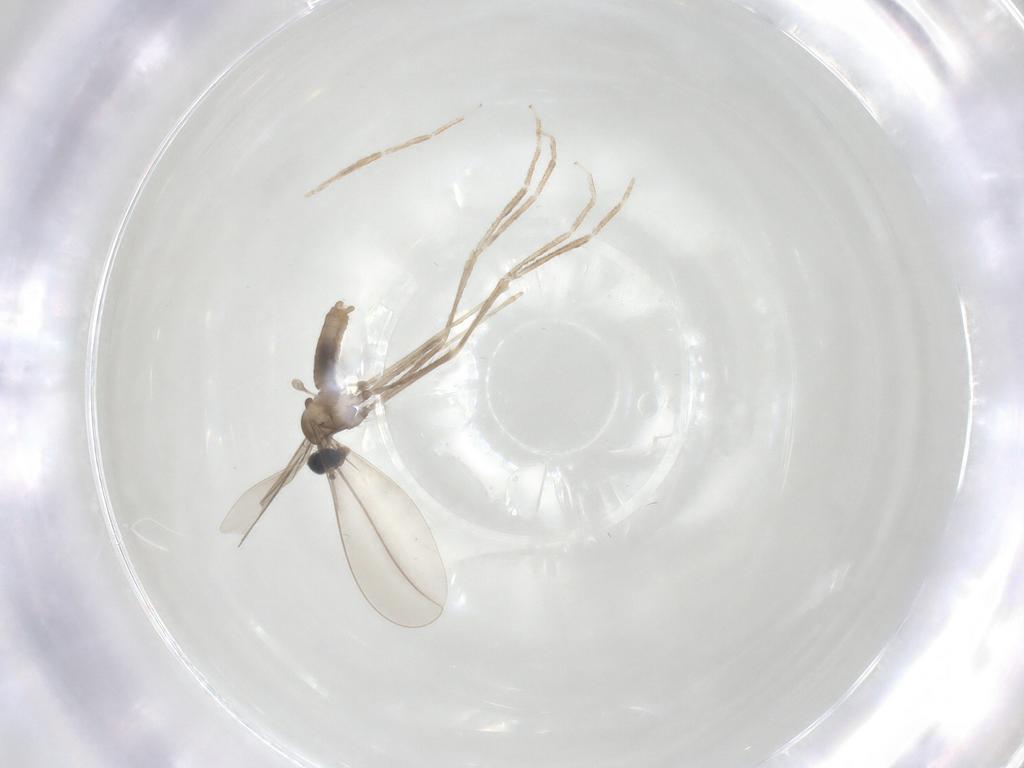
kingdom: Animalia
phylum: Arthropoda
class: Insecta
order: Diptera
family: Cecidomyiidae
